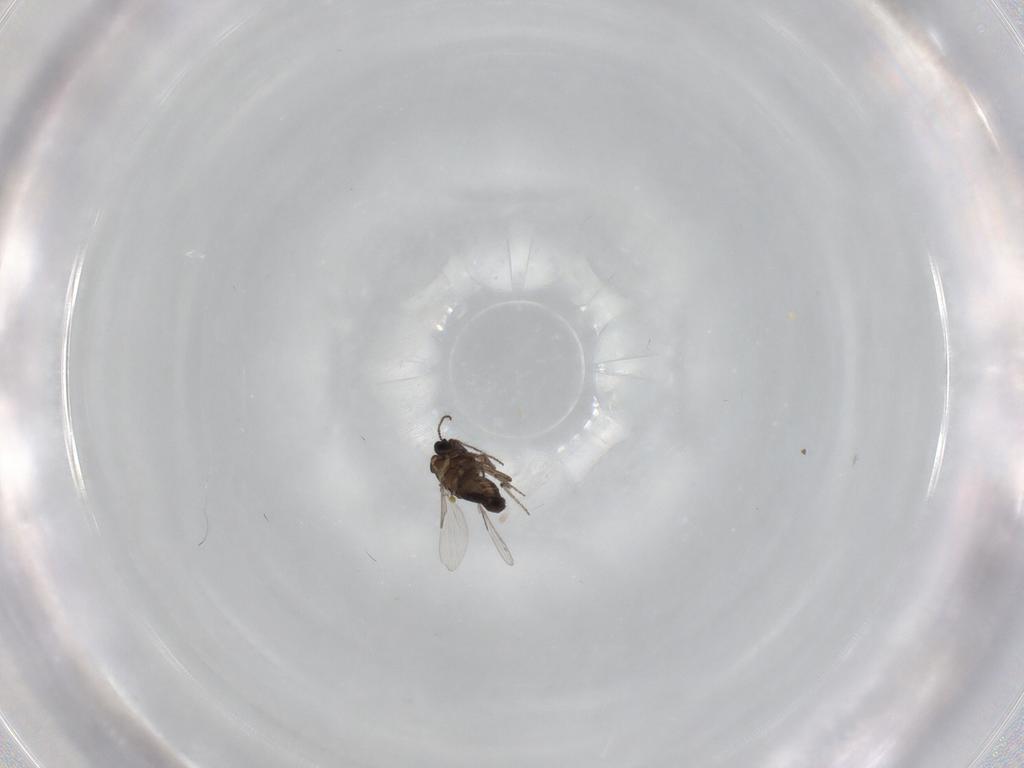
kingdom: Animalia
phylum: Arthropoda
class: Insecta
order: Diptera
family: Ceratopogonidae
